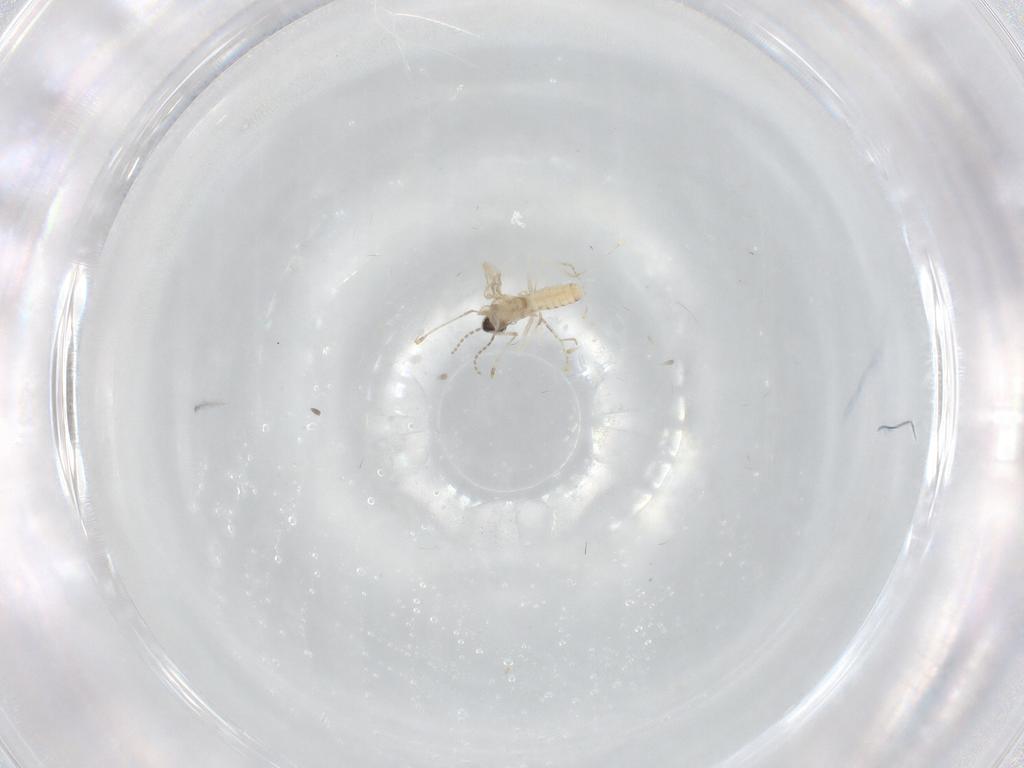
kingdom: Animalia
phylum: Arthropoda
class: Insecta
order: Diptera
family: Cecidomyiidae
